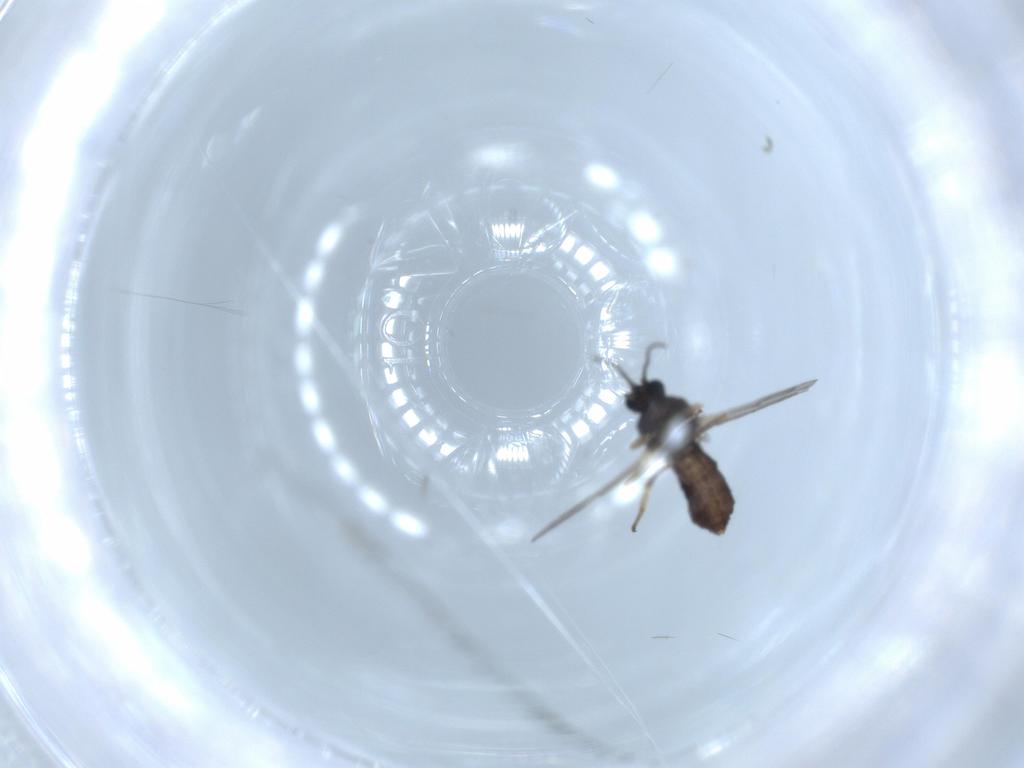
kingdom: Animalia
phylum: Arthropoda
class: Insecta
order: Diptera
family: Ceratopogonidae
